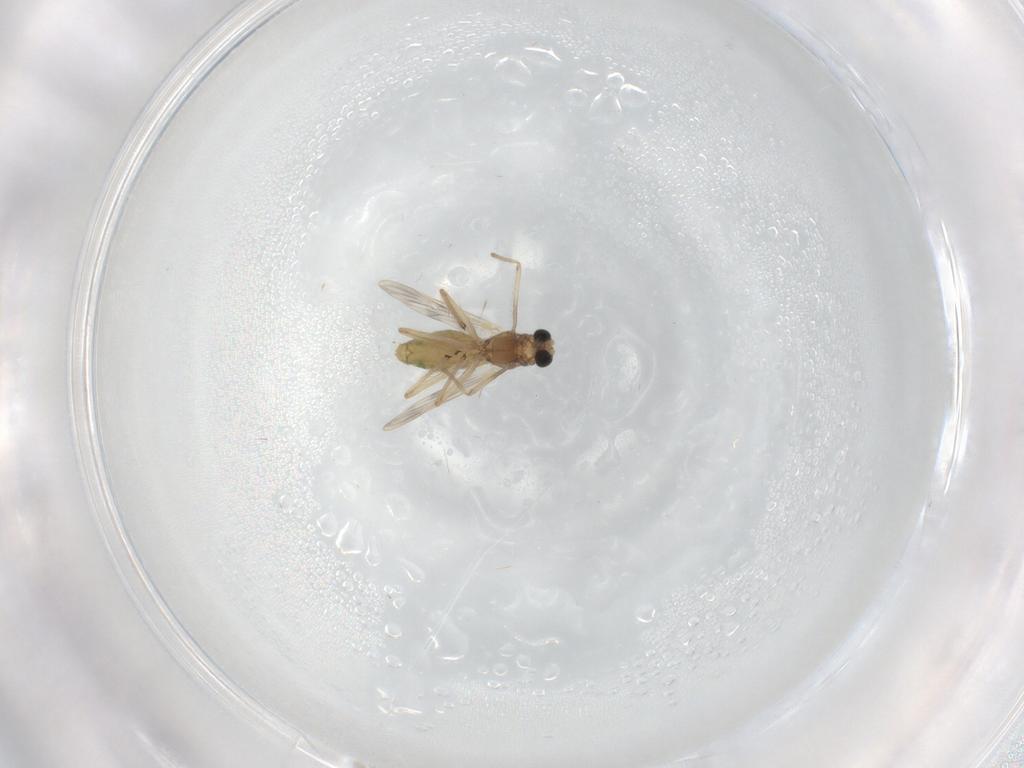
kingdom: Animalia
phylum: Arthropoda
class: Insecta
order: Diptera
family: Chironomidae
